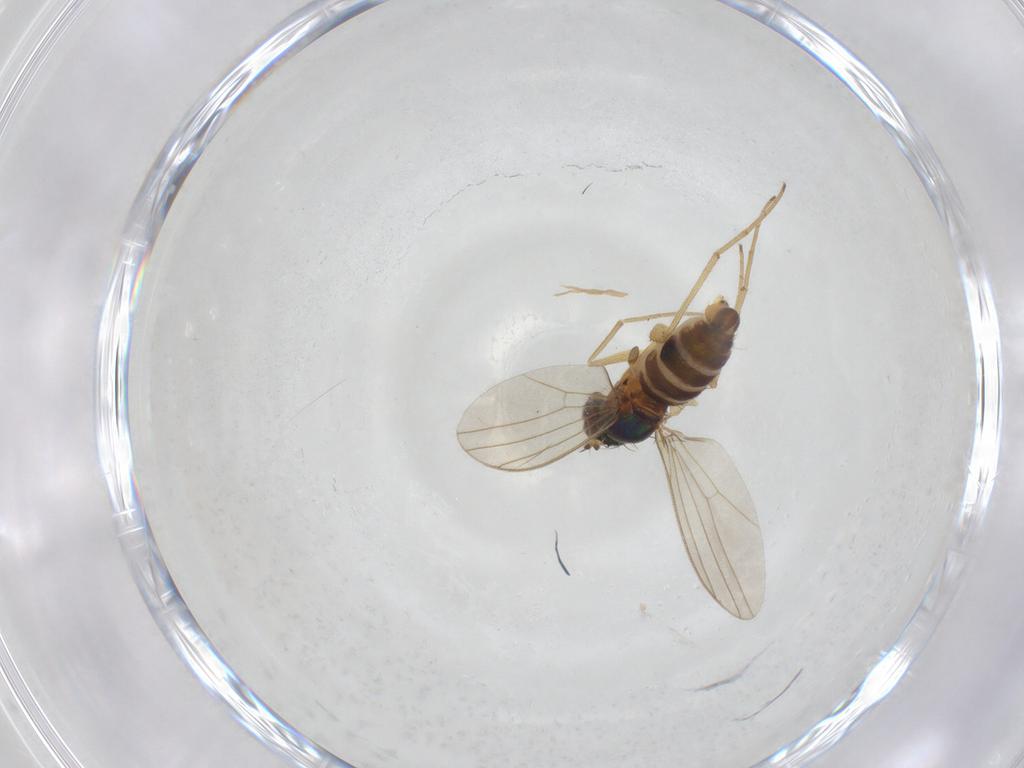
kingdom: Animalia
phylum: Arthropoda
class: Insecta
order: Diptera
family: Dolichopodidae
